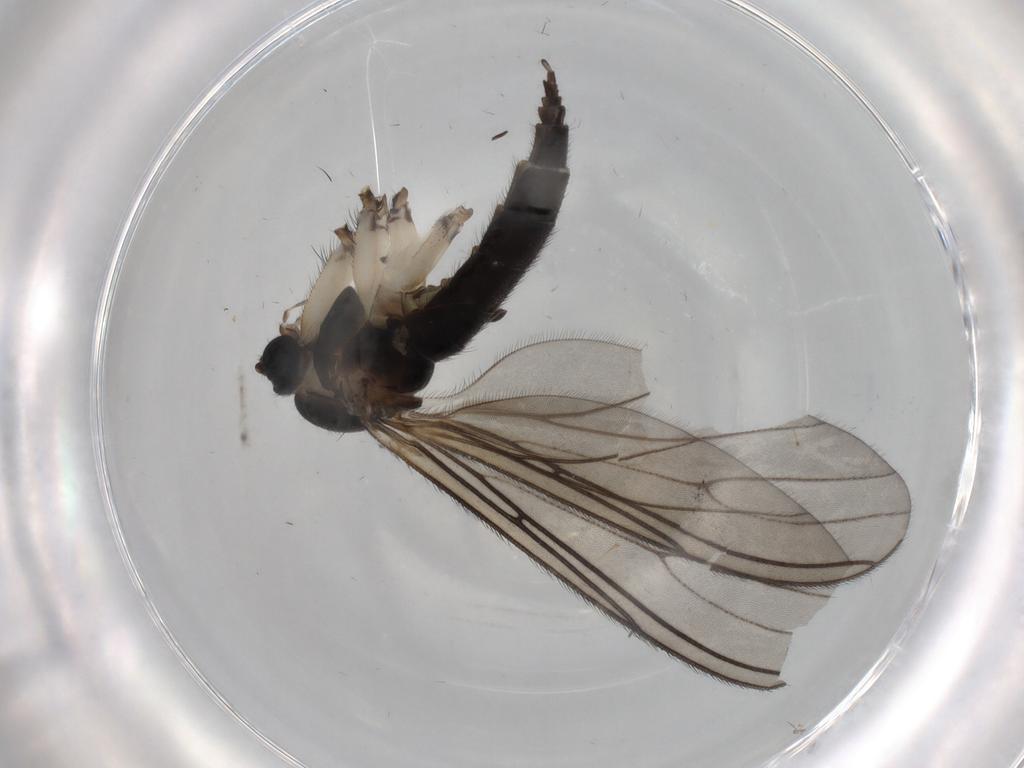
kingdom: Animalia
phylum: Arthropoda
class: Insecta
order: Diptera
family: Sciaridae
